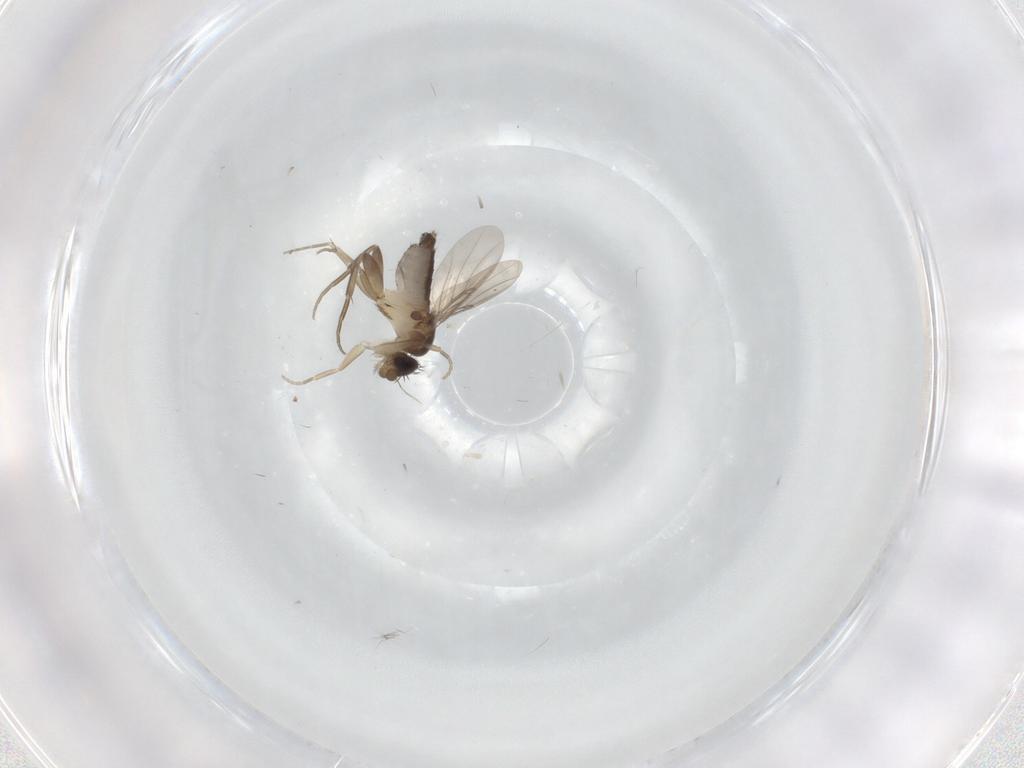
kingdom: Animalia
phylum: Arthropoda
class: Insecta
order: Diptera
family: Phoridae
